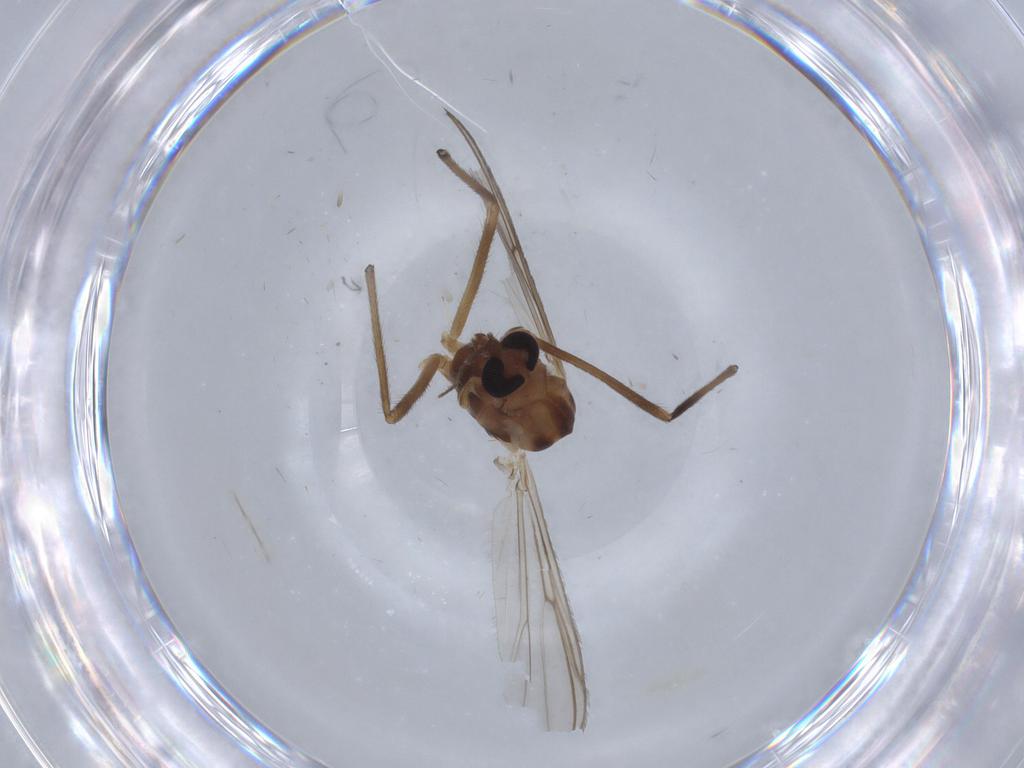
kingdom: Animalia
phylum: Arthropoda
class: Insecta
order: Diptera
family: Ceratopogonidae
